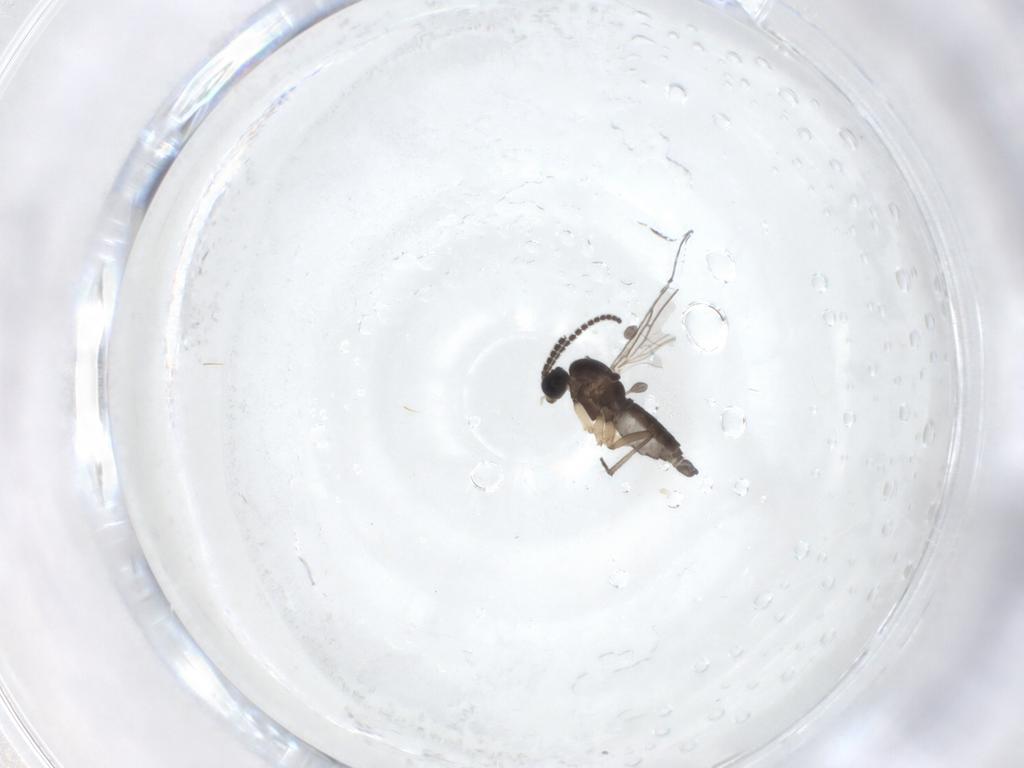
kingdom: Animalia
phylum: Arthropoda
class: Insecta
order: Diptera
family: Sciaridae
